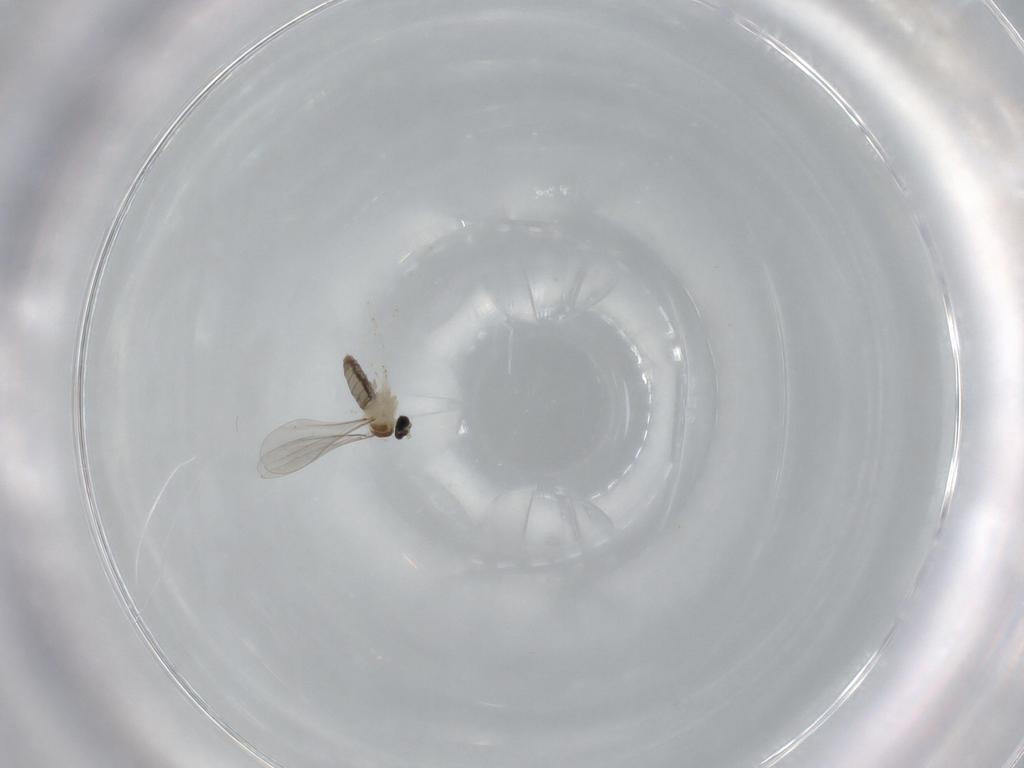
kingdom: Animalia
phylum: Arthropoda
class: Insecta
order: Diptera
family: Cecidomyiidae
